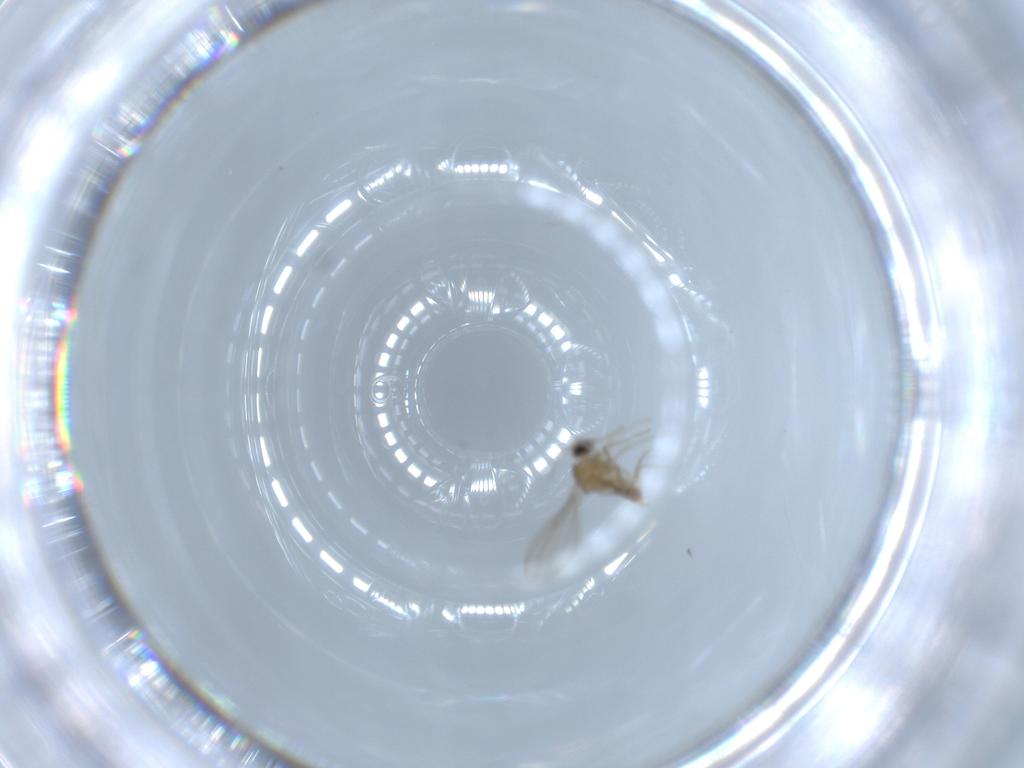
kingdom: Animalia
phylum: Arthropoda
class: Insecta
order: Diptera
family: Cecidomyiidae
